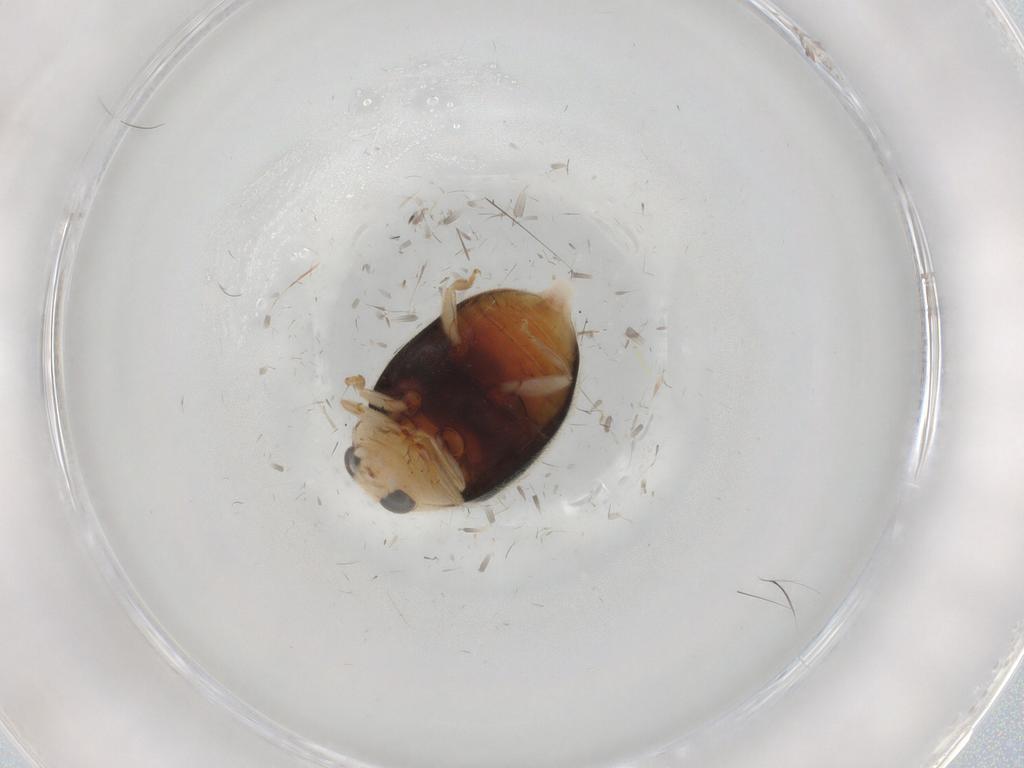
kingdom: Animalia
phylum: Arthropoda
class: Insecta
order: Coleoptera
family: Coccinellidae
